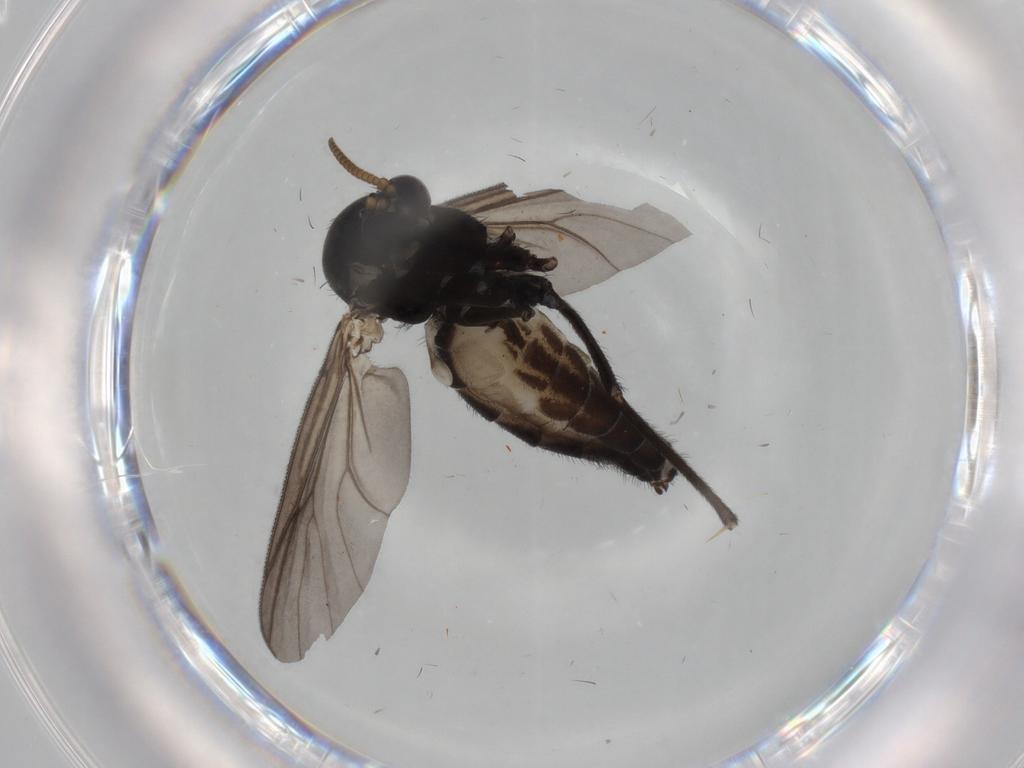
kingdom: Animalia
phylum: Arthropoda
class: Insecta
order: Diptera
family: Mycetophilidae
